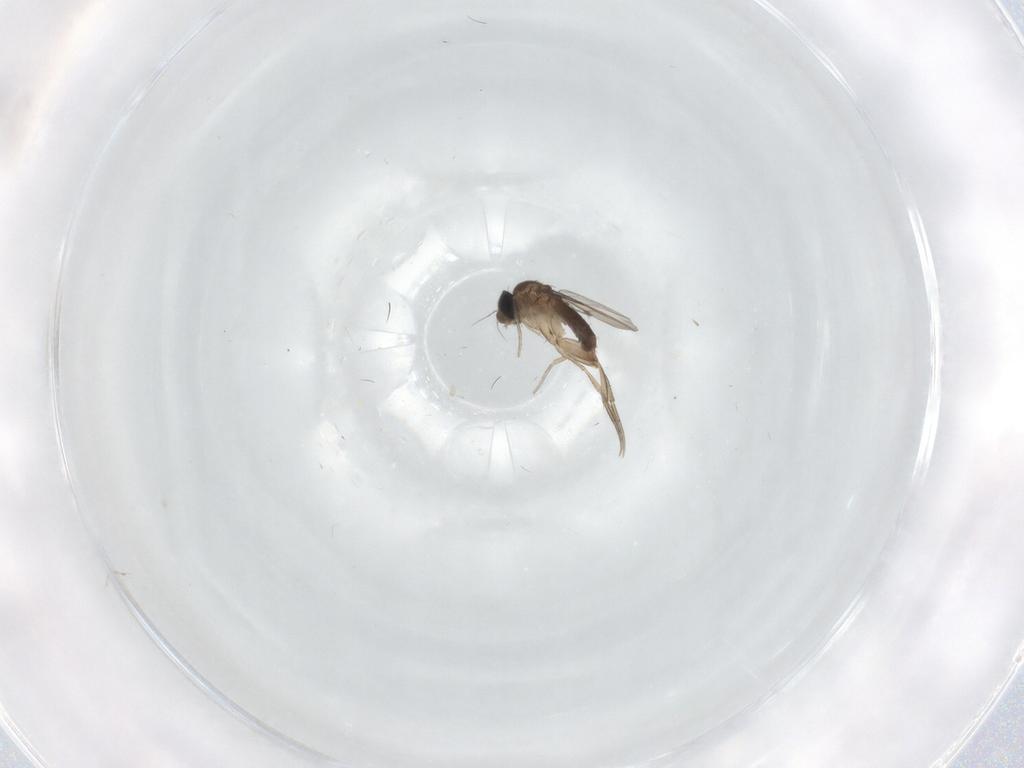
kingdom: Animalia
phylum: Arthropoda
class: Insecta
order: Diptera
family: Phoridae
